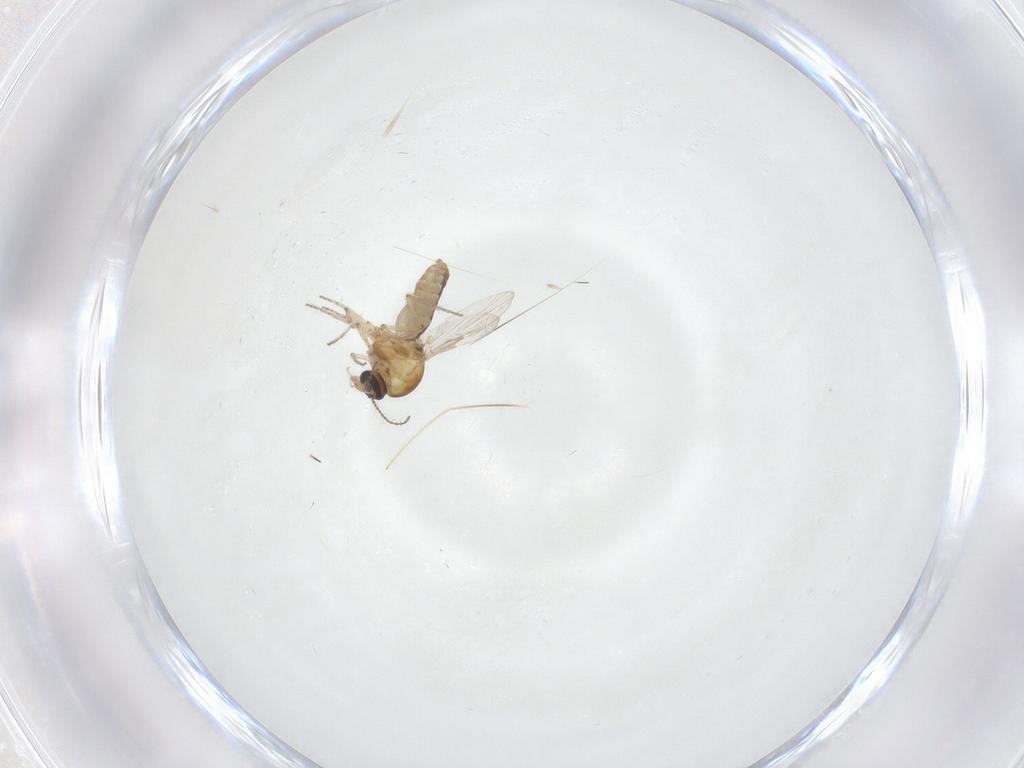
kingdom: Animalia
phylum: Arthropoda
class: Insecta
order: Diptera
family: Ceratopogonidae
